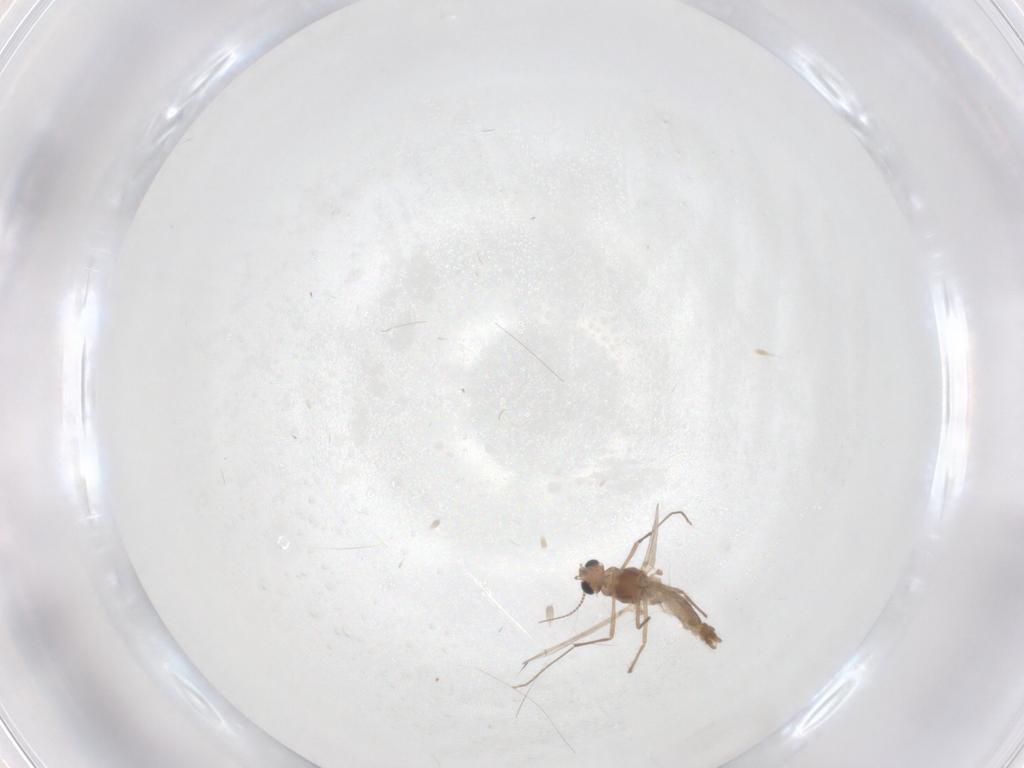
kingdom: Animalia
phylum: Arthropoda
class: Insecta
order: Diptera
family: Chironomidae
